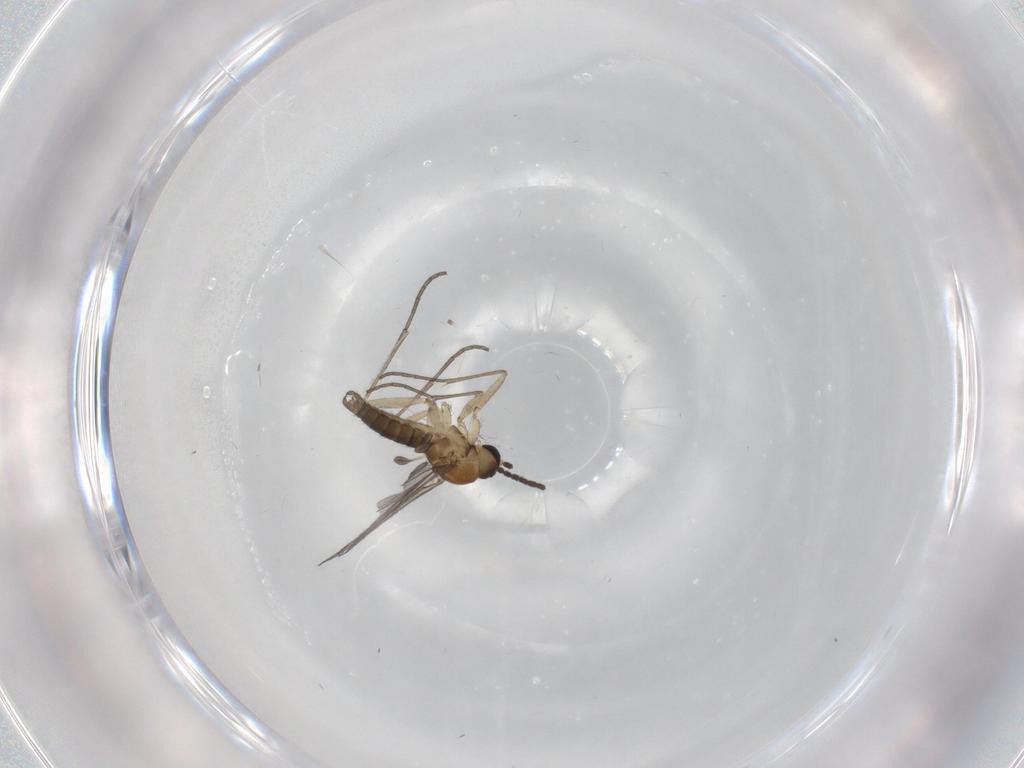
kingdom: Animalia
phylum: Arthropoda
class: Insecta
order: Diptera
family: Sciaridae
